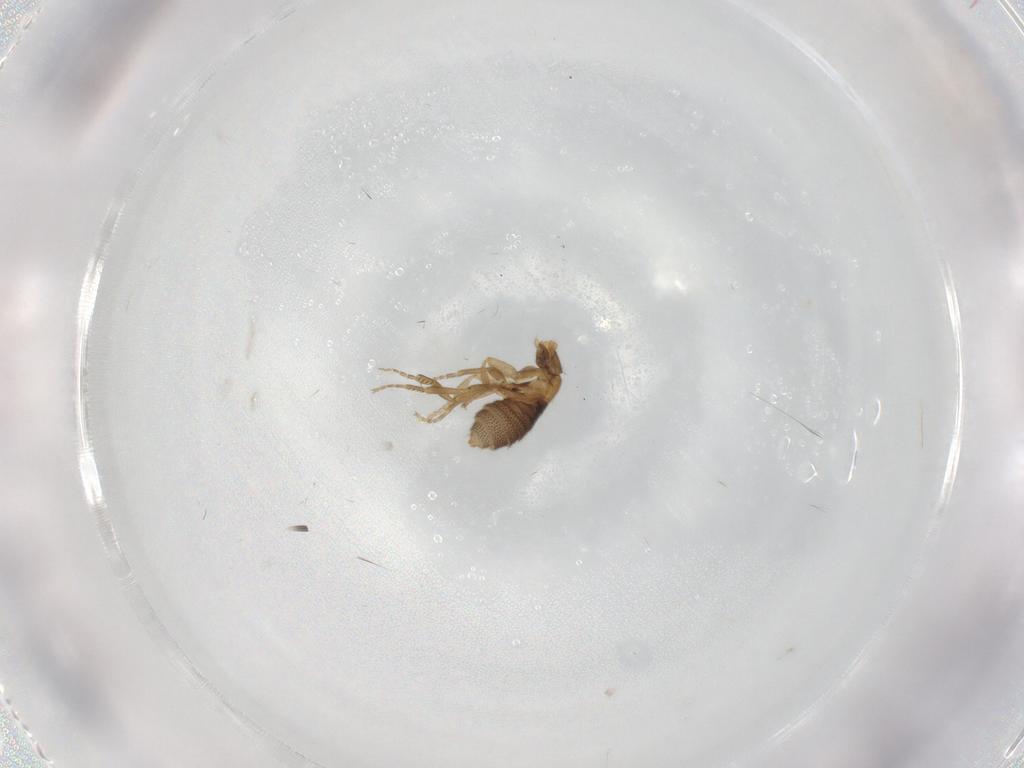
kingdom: Animalia
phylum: Arthropoda
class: Insecta
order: Diptera
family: Phoridae
